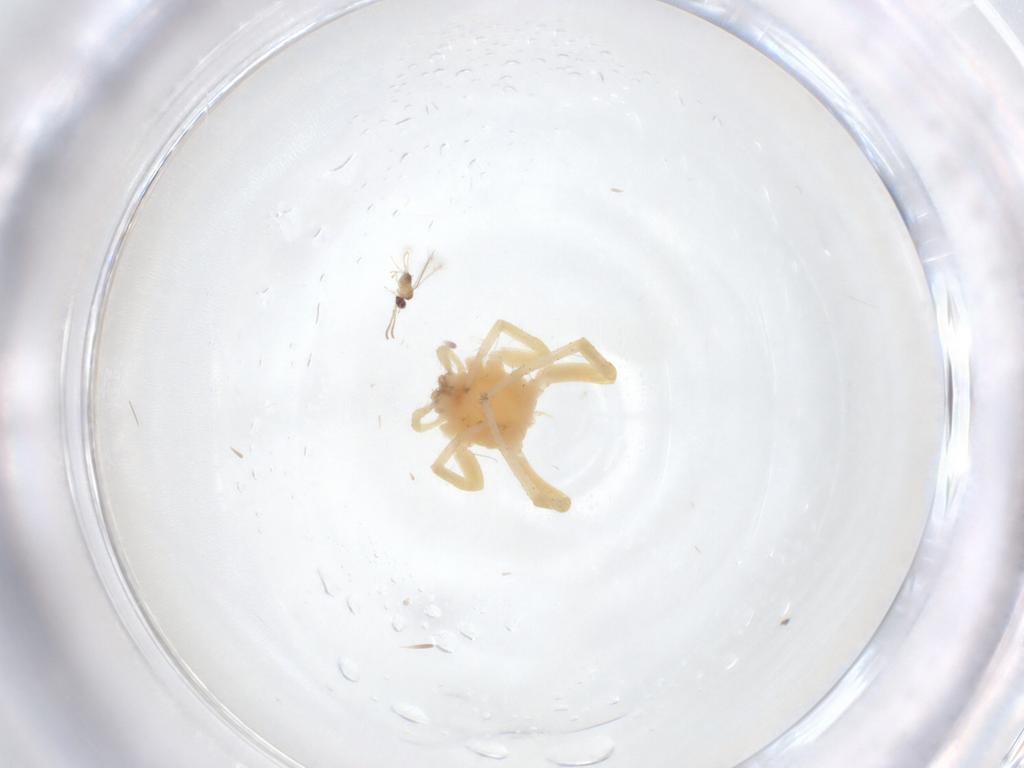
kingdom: Animalia
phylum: Arthropoda
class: Arachnida
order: Araneae
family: Anyphaenidae
